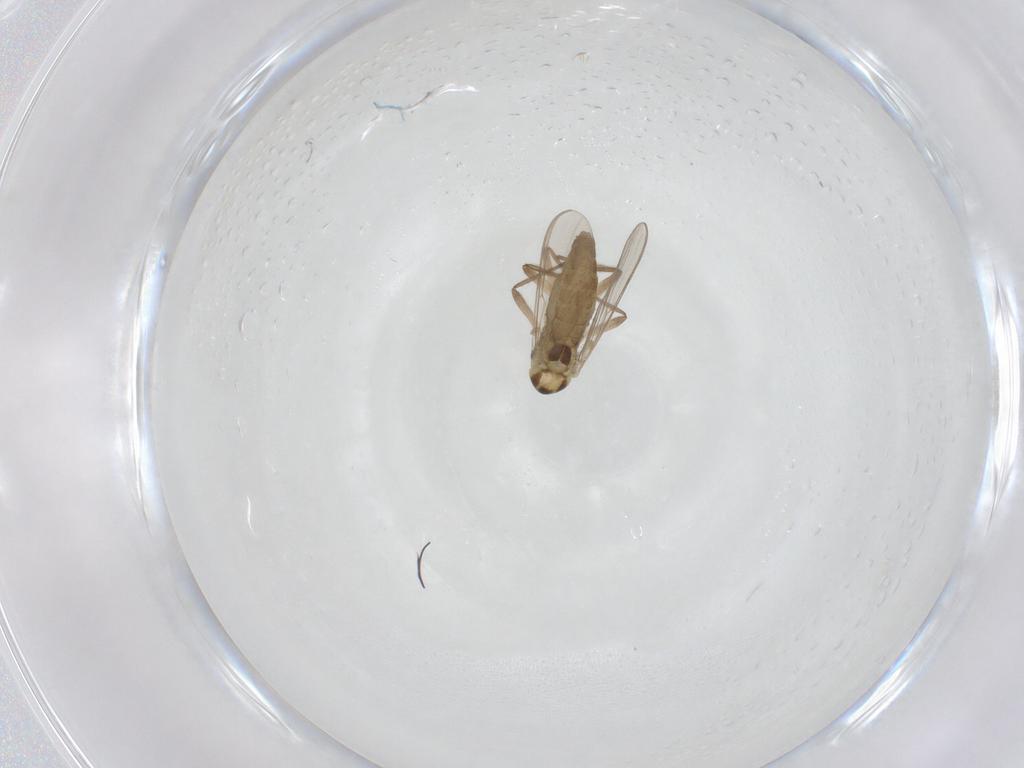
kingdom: Animalia
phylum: Arthropoda
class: Insecta
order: Diptera
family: Chironomidae
